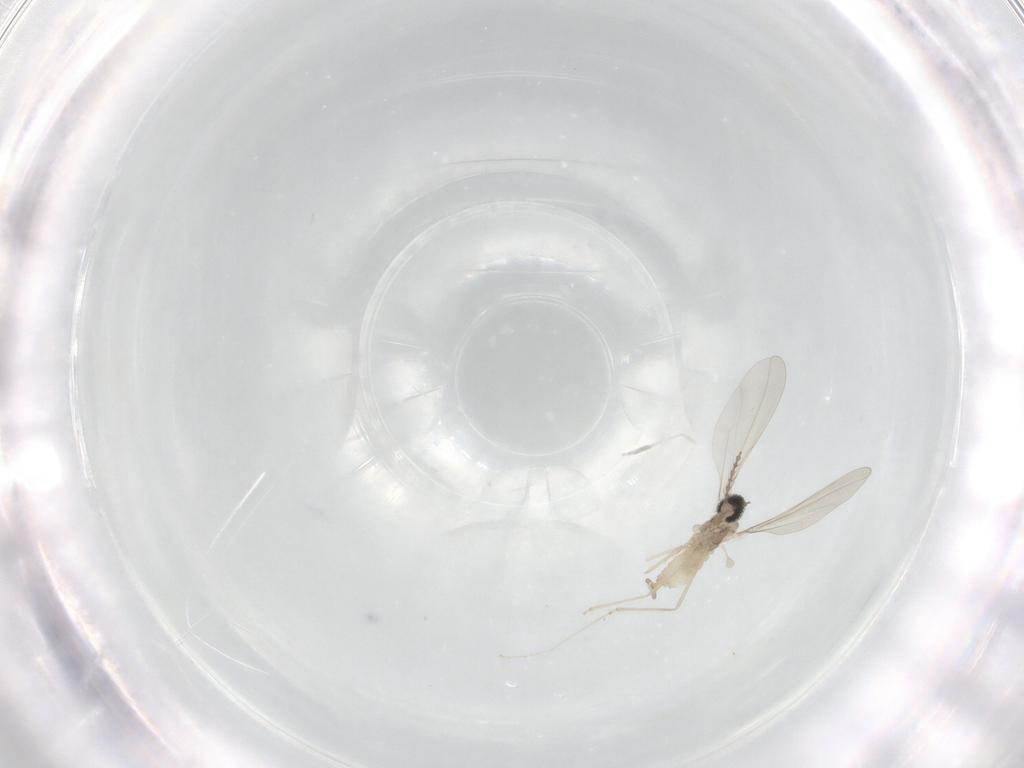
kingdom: Animalia
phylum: Arthropoda
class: Insecta
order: Diptera
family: Cecidomyiidae
